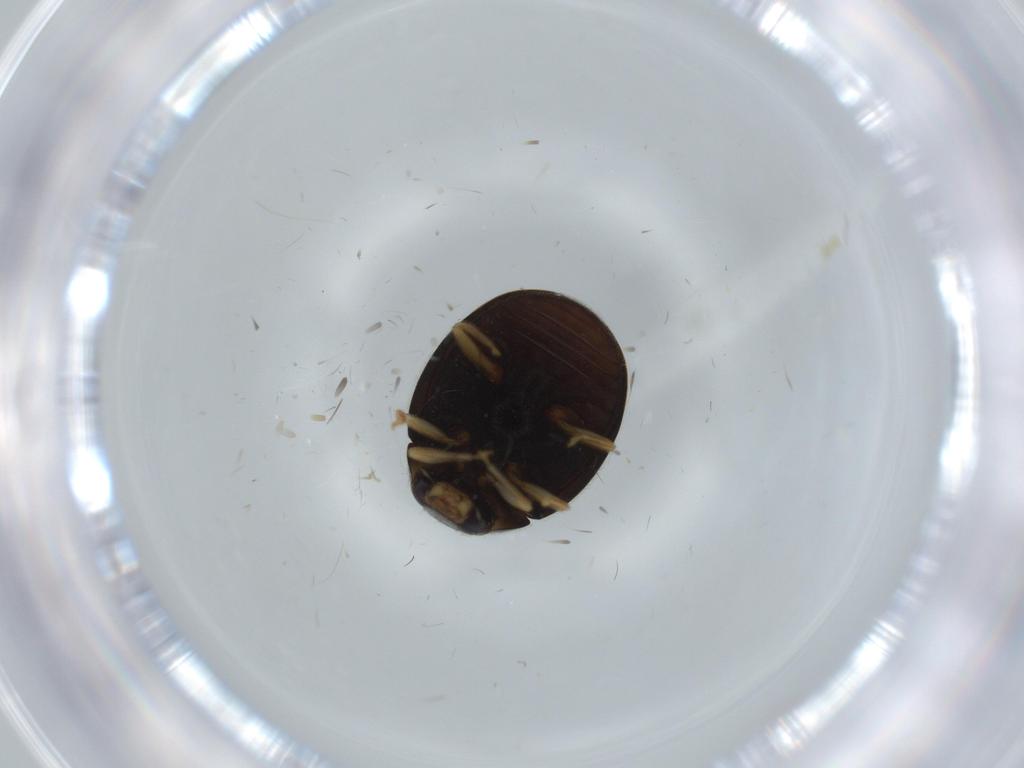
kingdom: Animalia
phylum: Arthropoda
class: Insecta
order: Coleoptera
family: Coccinellidae
